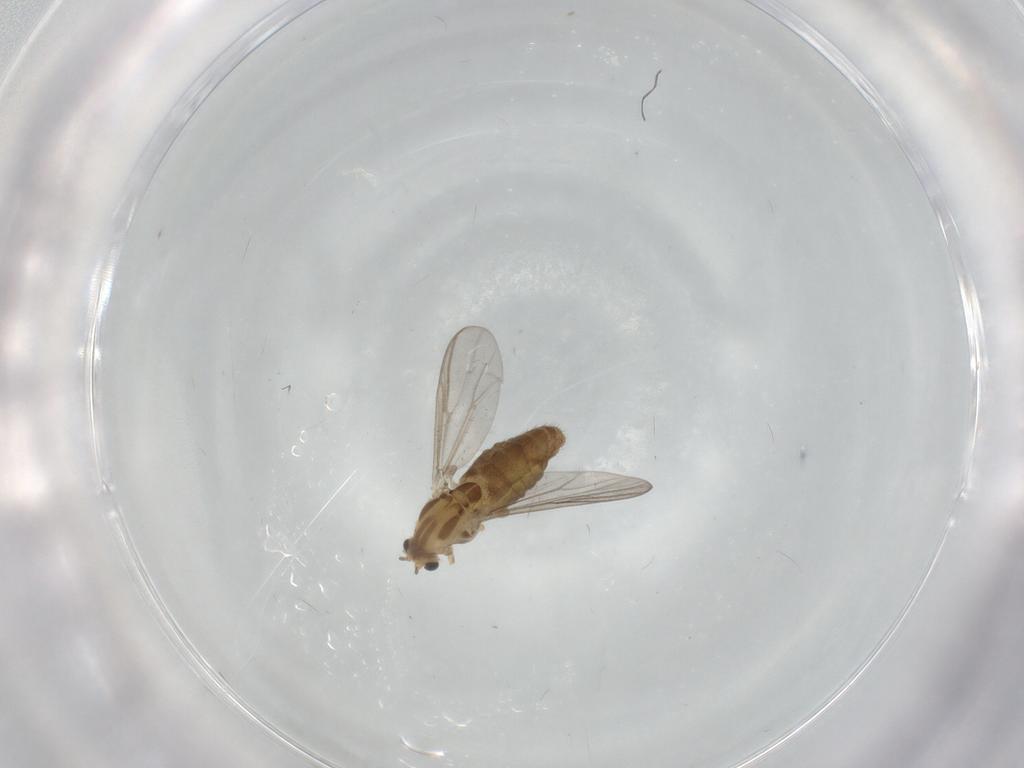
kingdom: Animalia
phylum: Arthropoda
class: Insecta
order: Diptera
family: Chironomidae
